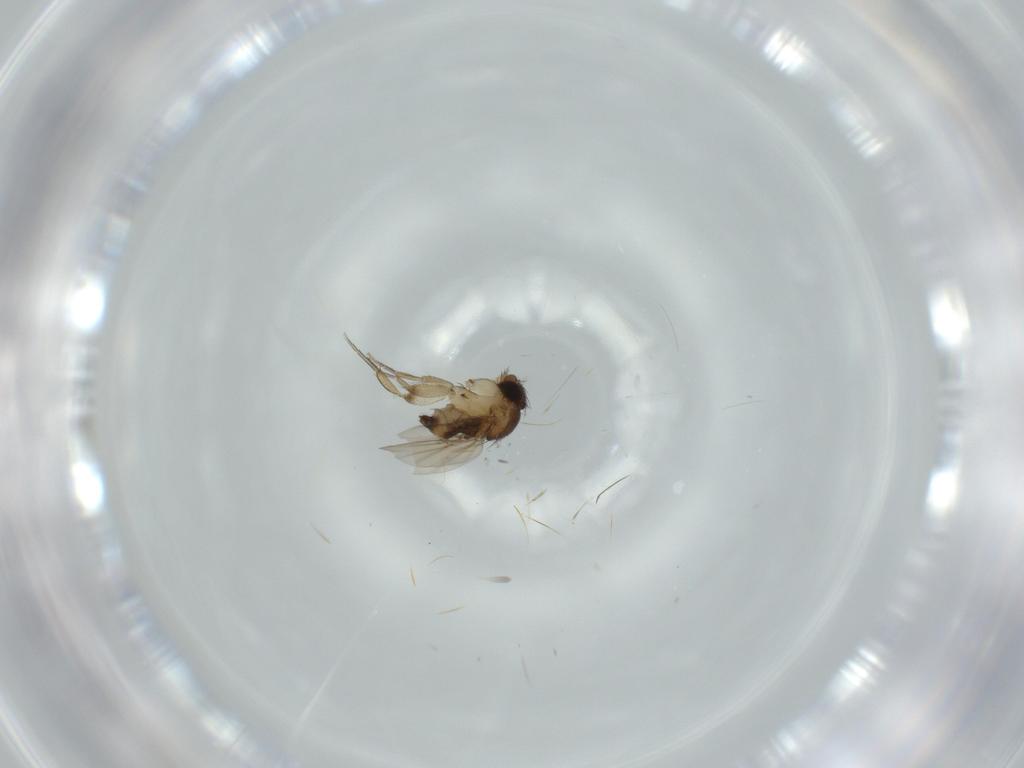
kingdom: Animalia
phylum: Arthropoda
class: Insecta
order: Diptera
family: Phoridae
